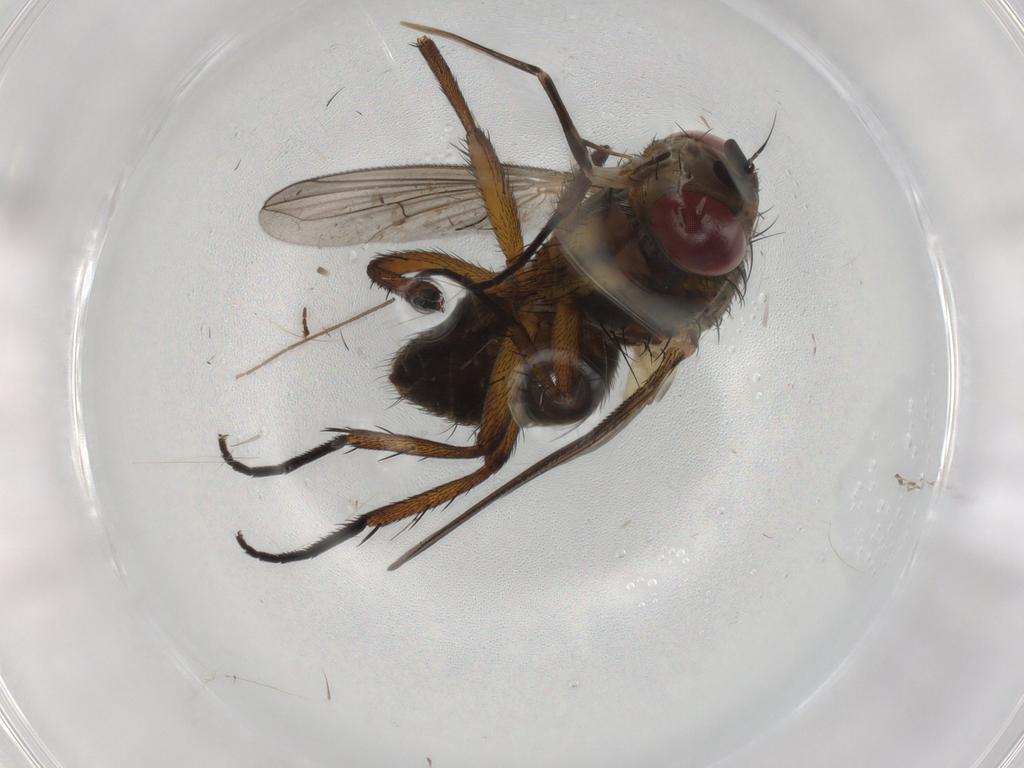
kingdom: Animalia
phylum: Arthropoda
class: Insecta
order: Diptera
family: Tachinidae
